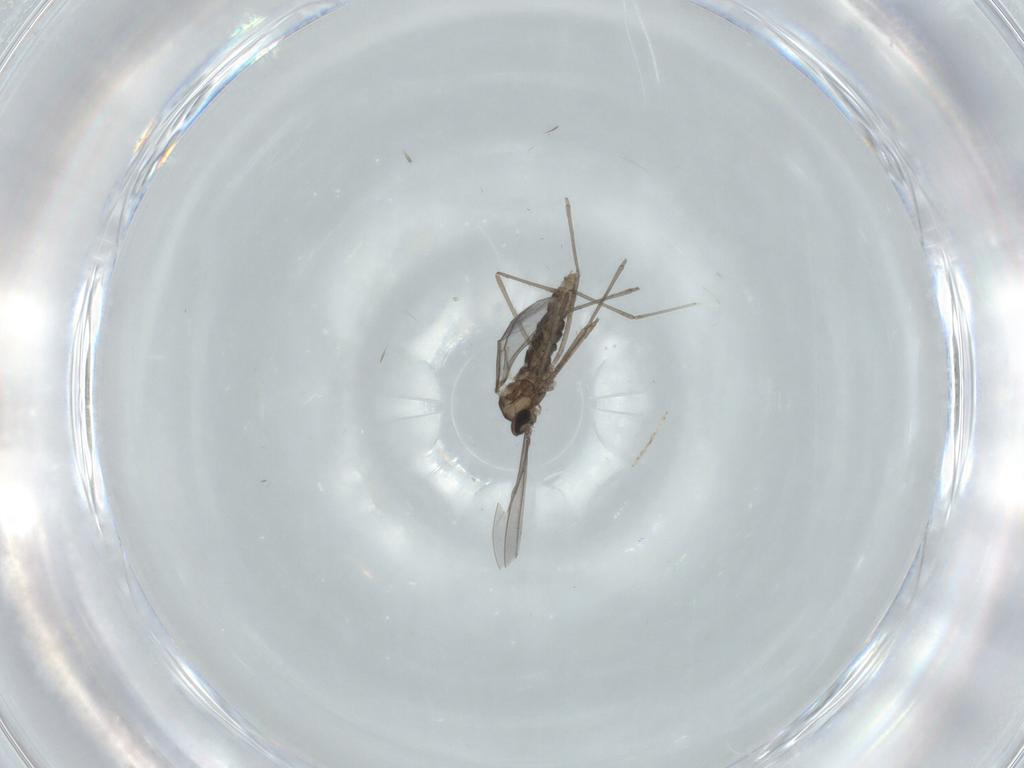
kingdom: Animalia
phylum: Arthropoda
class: Insecta
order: Diptera
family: Cecidomyiidae
